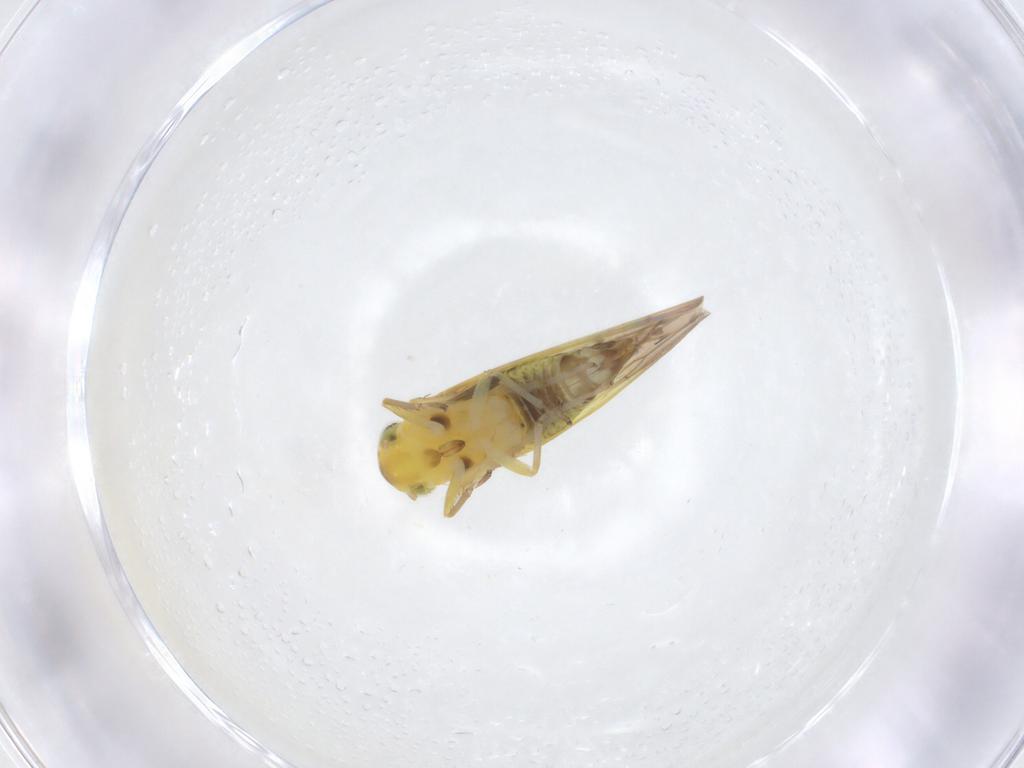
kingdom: Animalia
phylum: Arthropoda
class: Insecta
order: Hemiptera
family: Cicadellidae
